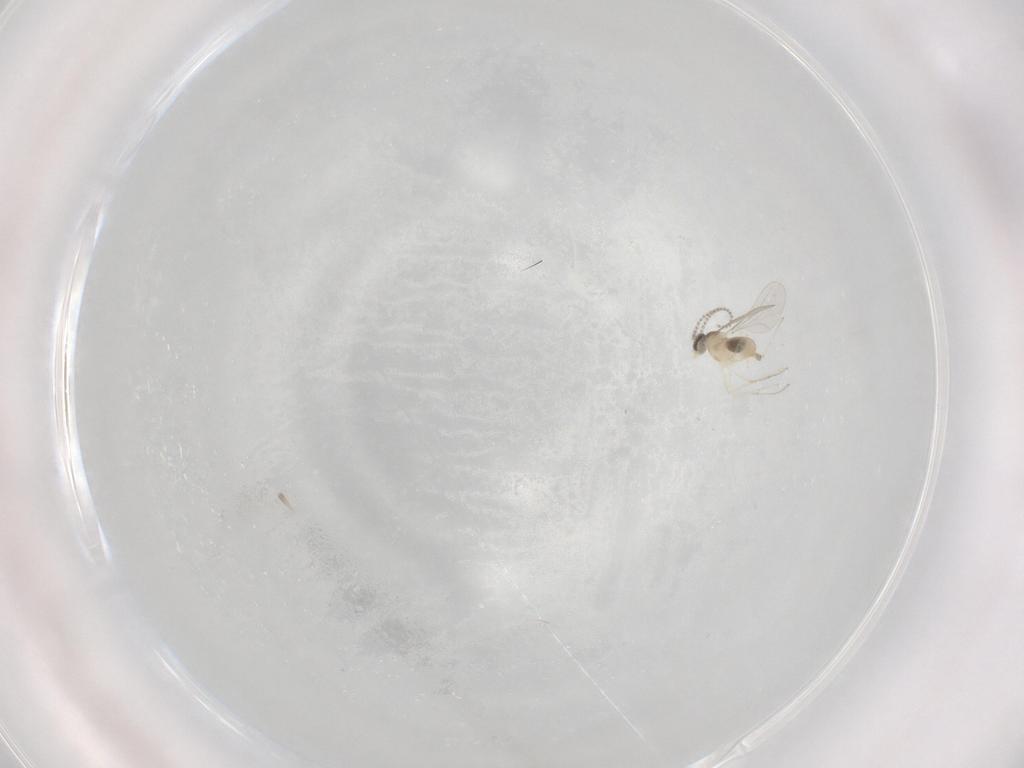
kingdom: Animalia
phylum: Arthropoda
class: Insecta
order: Diptera
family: Cecidomyiidae
